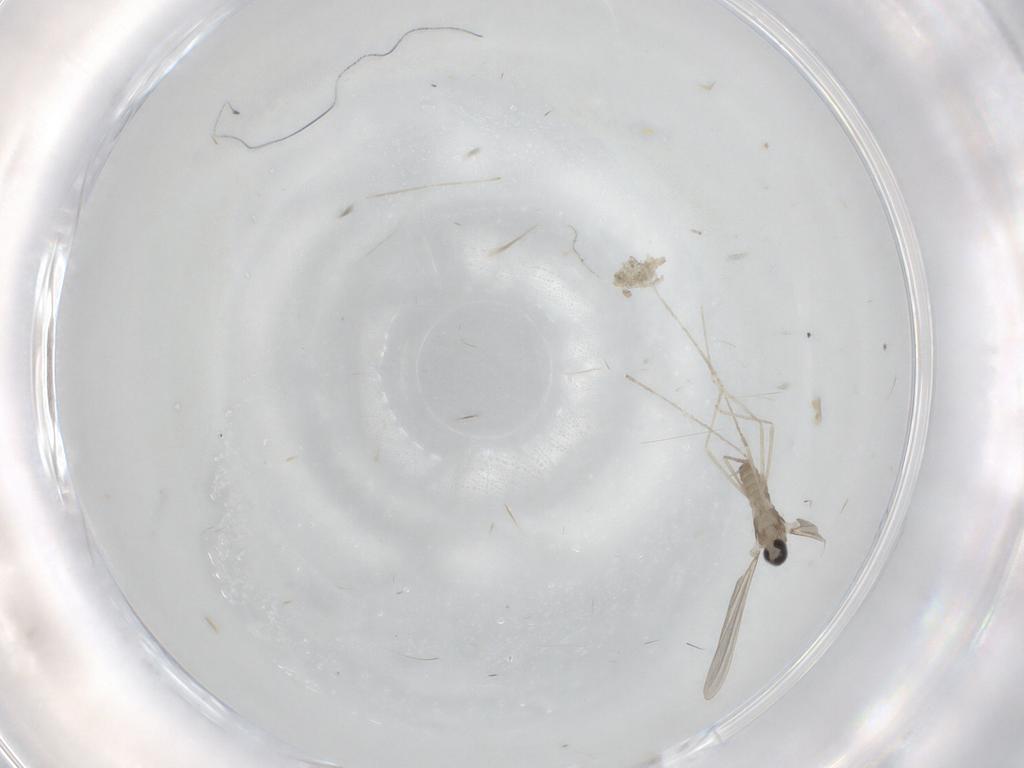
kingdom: Animalia
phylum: Arthropoda
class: Insecta
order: Diptera
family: Cecidomyiidae
